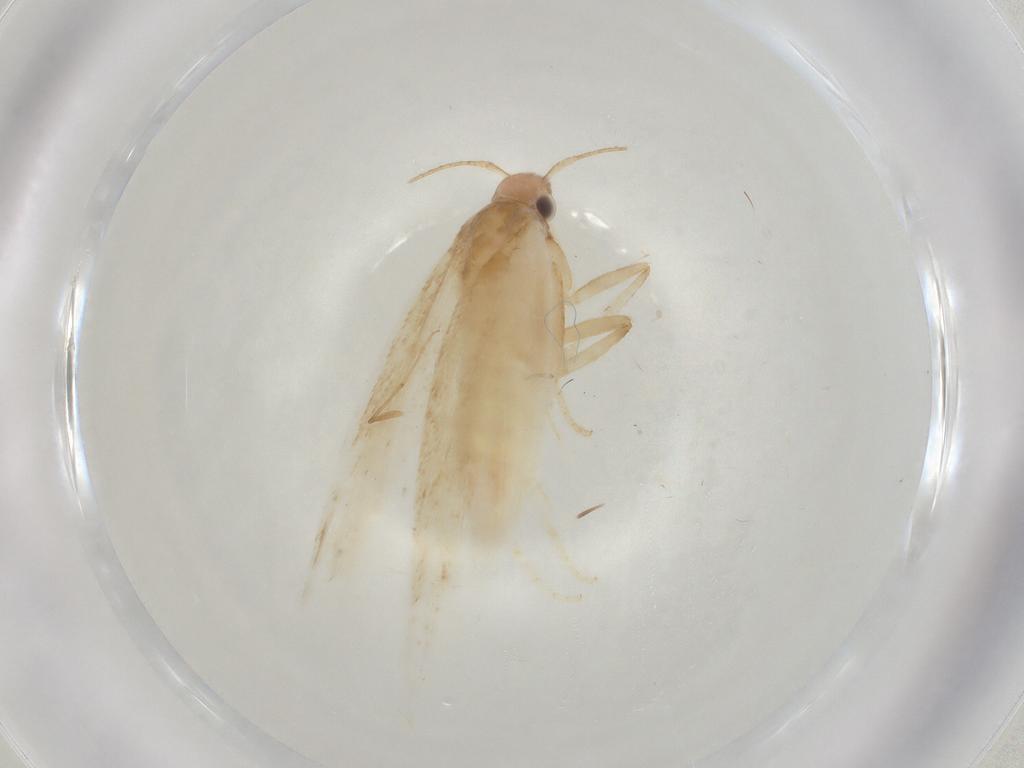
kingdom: Animalia
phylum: Arthropoda
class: Insecta
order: Lepidoptera
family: Gelechiidae
